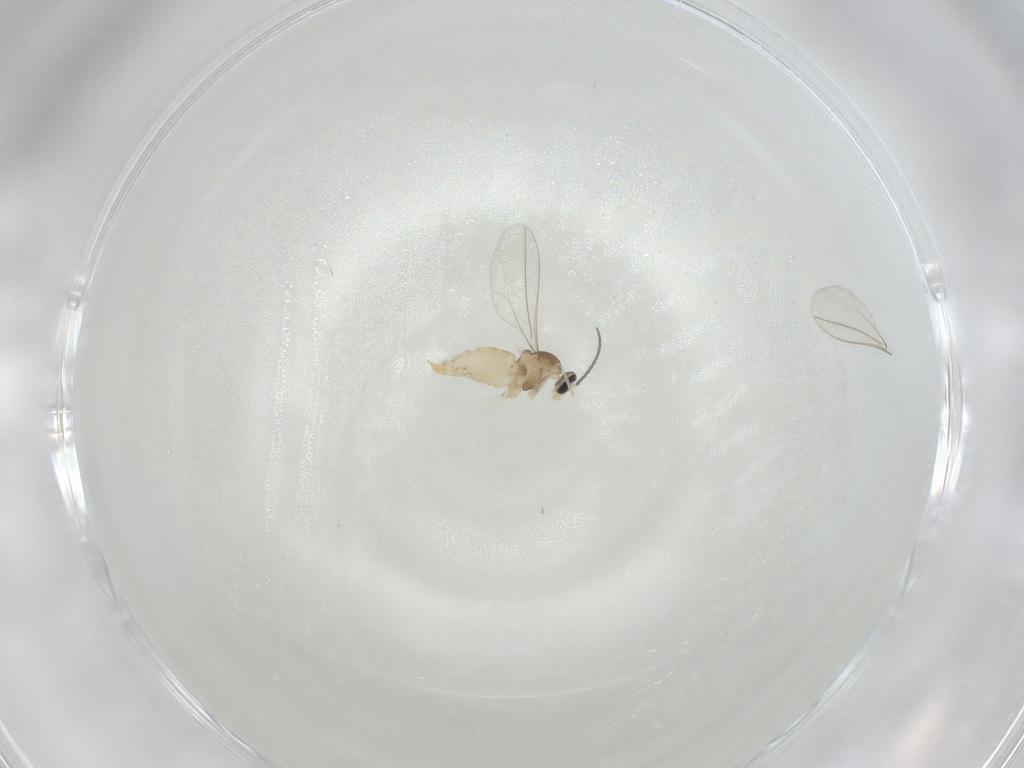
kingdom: Animalia
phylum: Arthropoda
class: Insecta
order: Diptera
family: Cecidomyiidae
